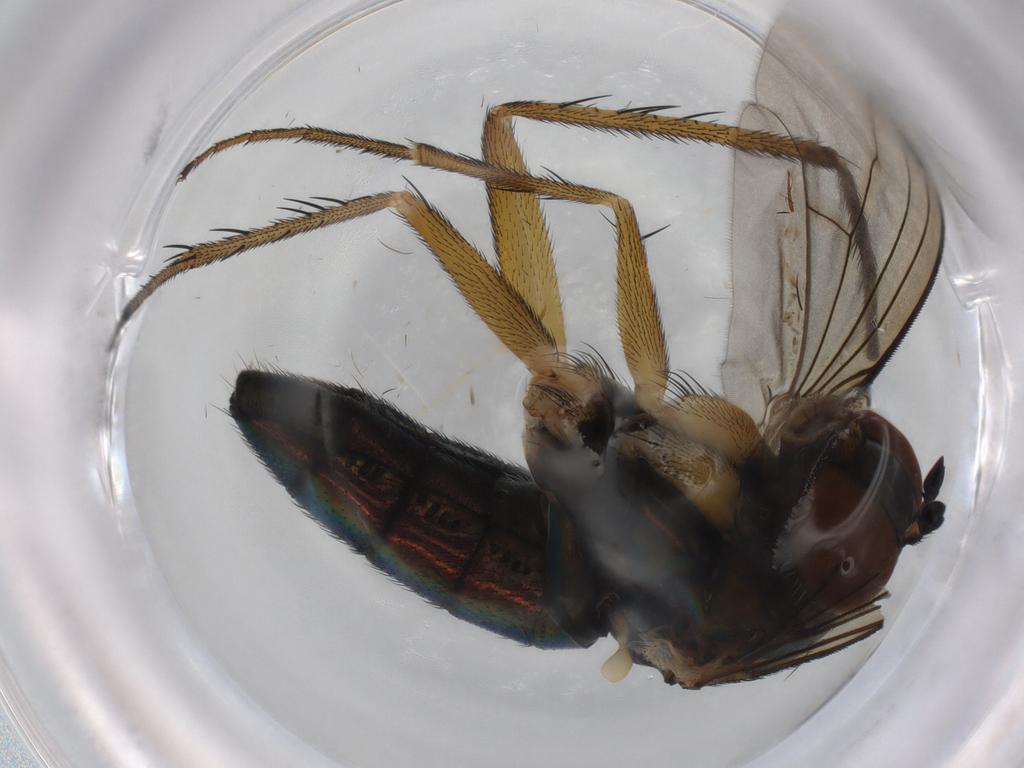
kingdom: Animalia
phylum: Arthropoda
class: Insecta
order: Diptera
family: Dolichopodidae
